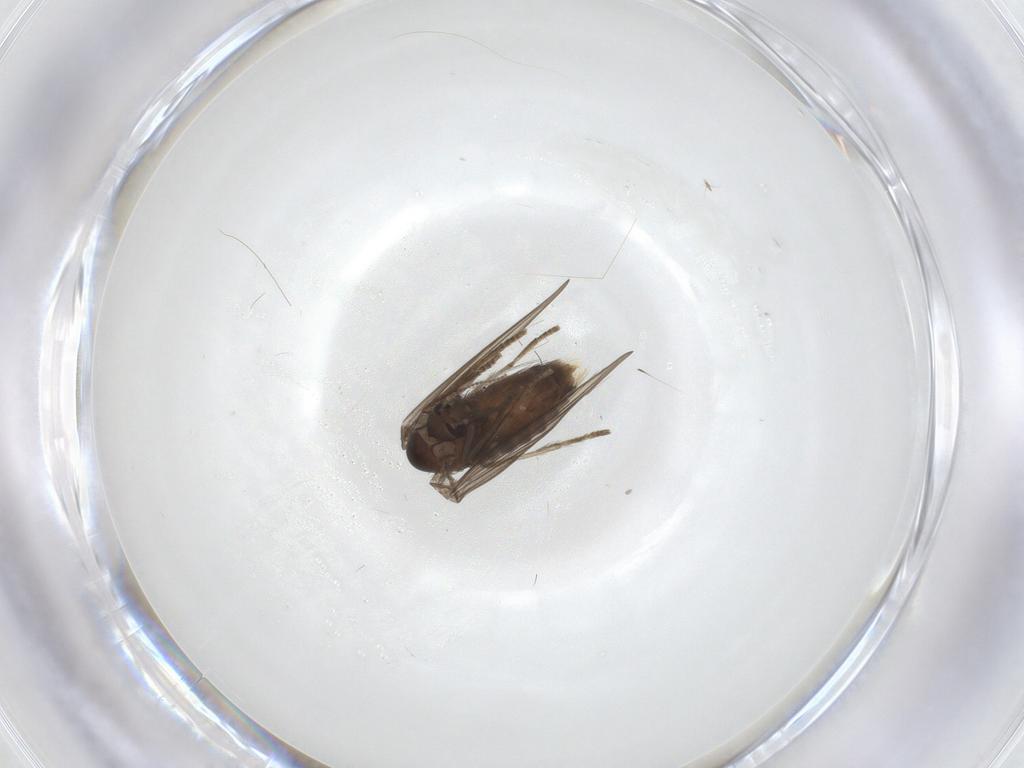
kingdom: Animalia
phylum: Arthropoda
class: Insecta
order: Diptera
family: Psychodidae
